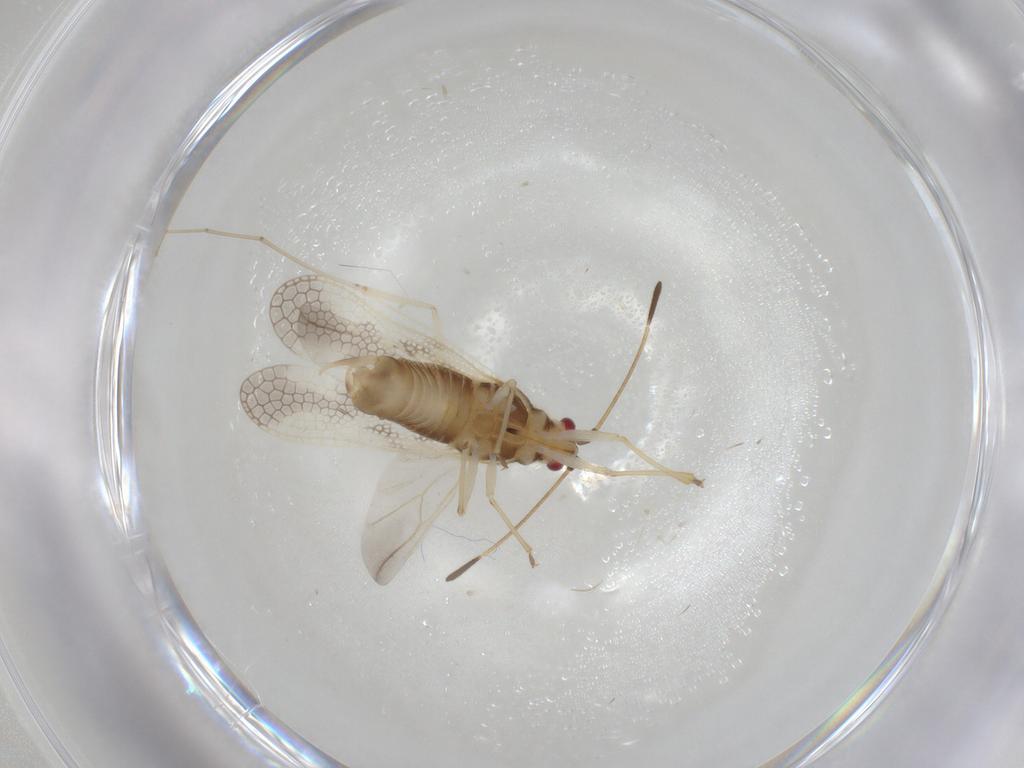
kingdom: Animalia
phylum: Arthropoda
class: Insecta
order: Hemiptera
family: Tingidae
